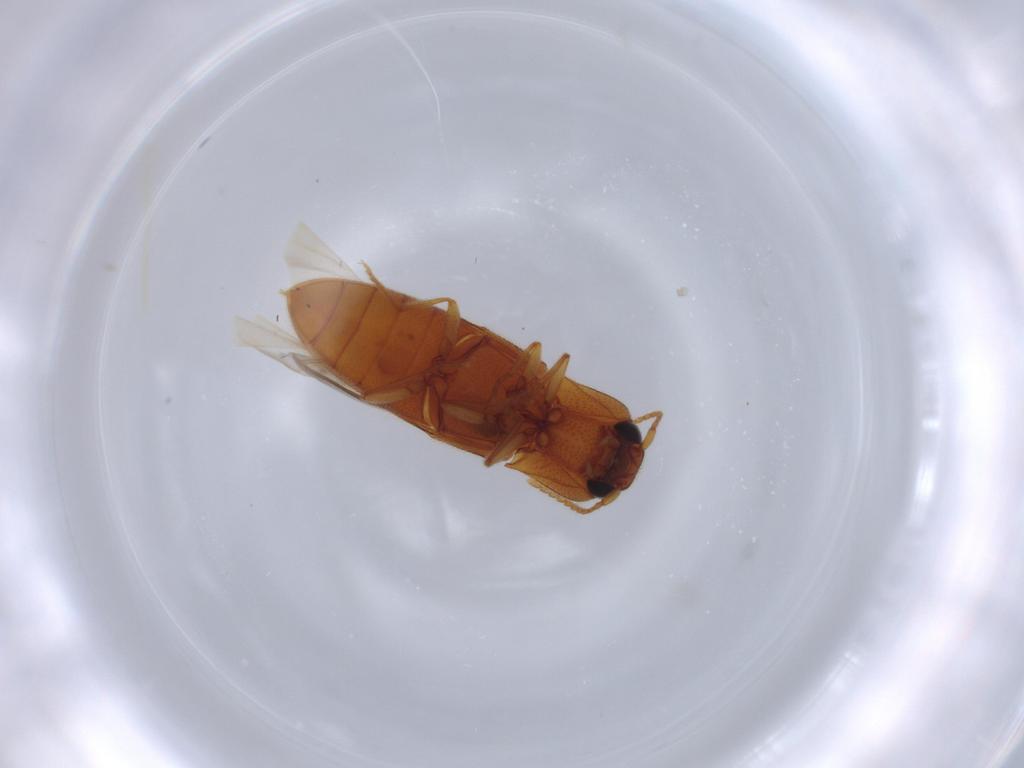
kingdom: Animalia
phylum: Arthropoda
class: Insecta
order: Coleoptera
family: Elateridae
